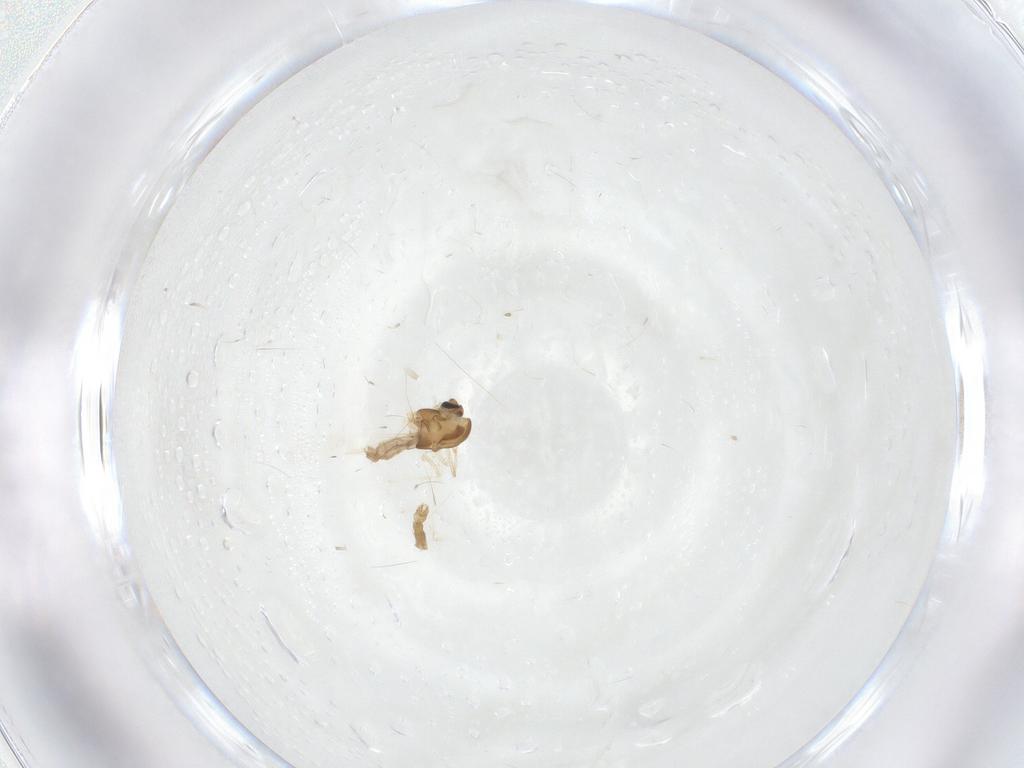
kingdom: Animalia
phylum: Arthropoda
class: Insecta
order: Diptera
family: Chironomidae
